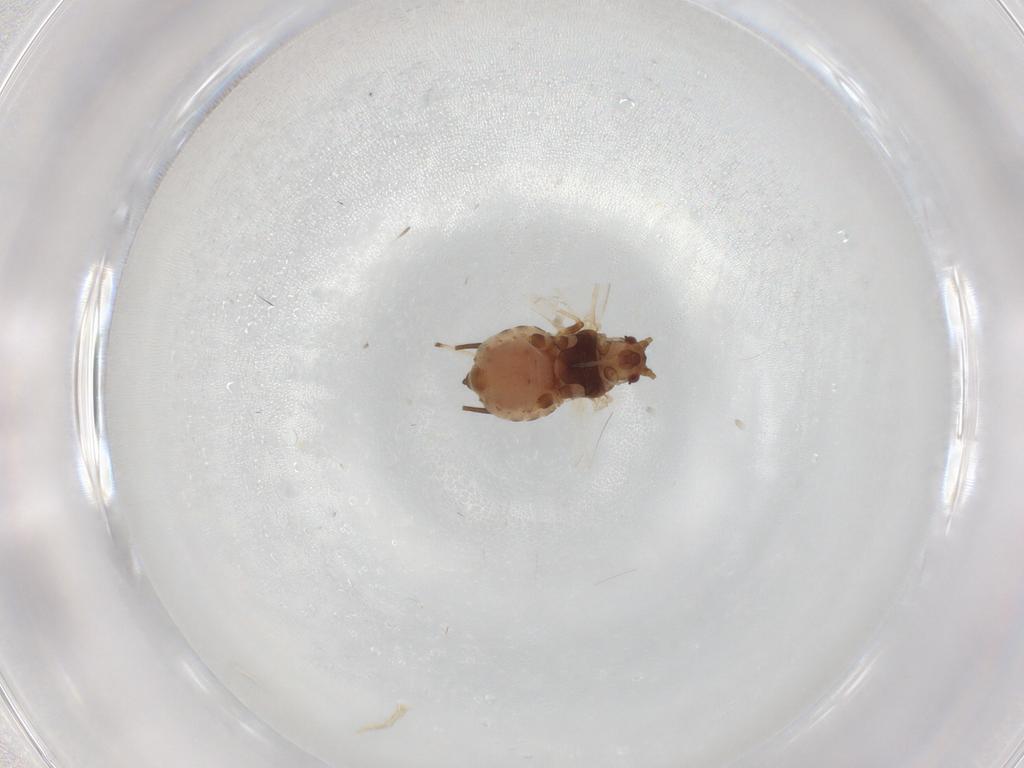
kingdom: Animalia
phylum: Arthropoda
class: Insecta
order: Hemiptera
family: Aphididae
